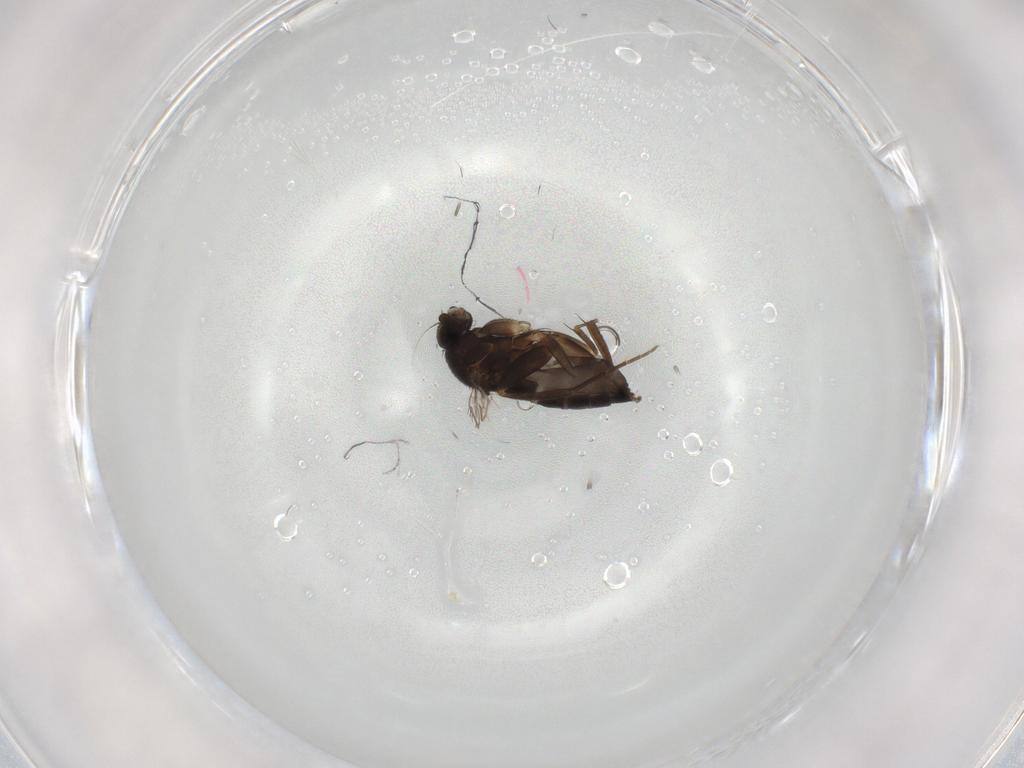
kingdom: Animalia
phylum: Arthropoda
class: Insecta
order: Diptera
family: Phoridae
